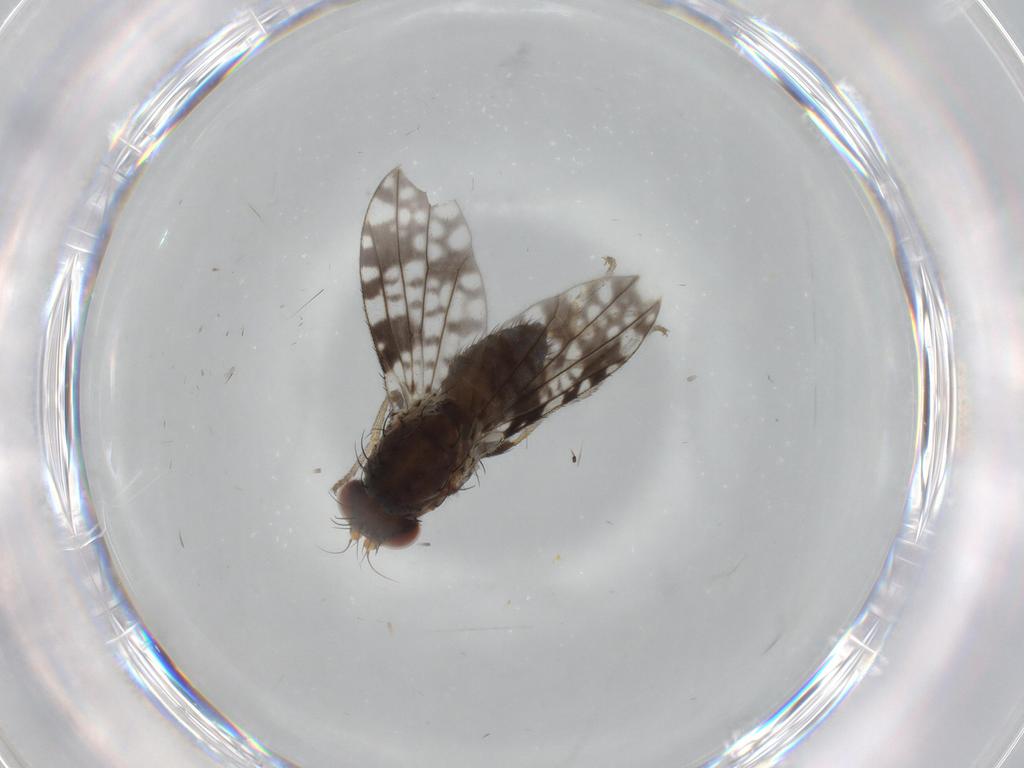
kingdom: Animalia
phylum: Arthropoda
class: Insecta
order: Diptera
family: Tephritidae
